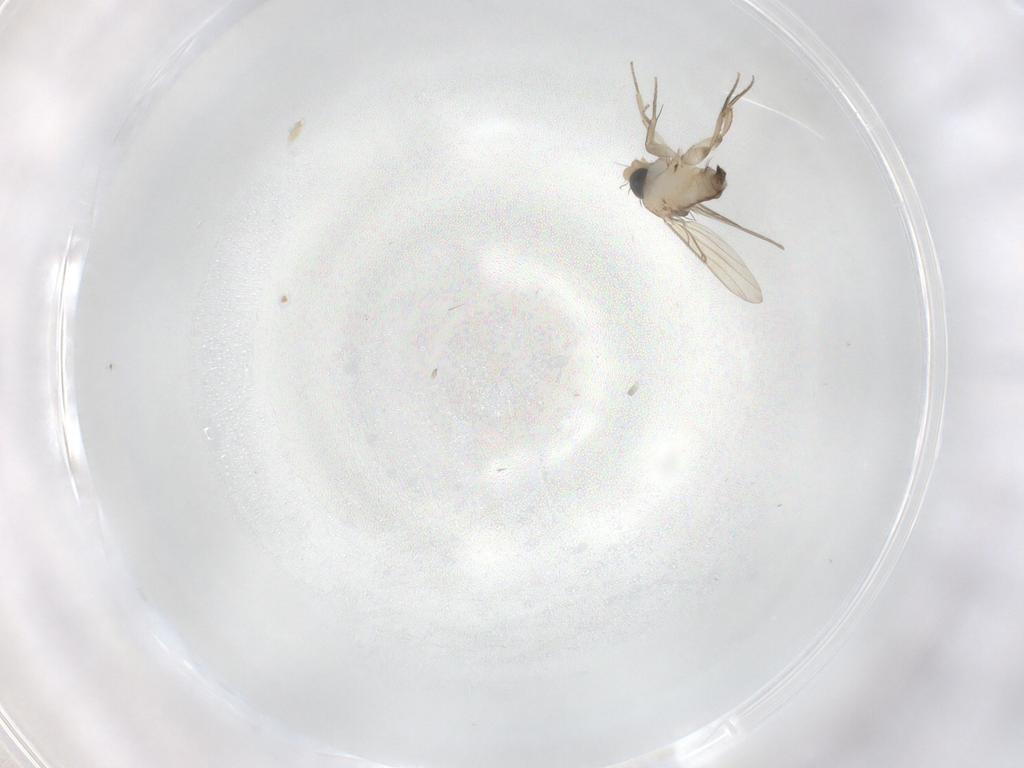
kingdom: Animalia
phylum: Arthropoda
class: Insecta
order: Diptera
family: Phoridae
